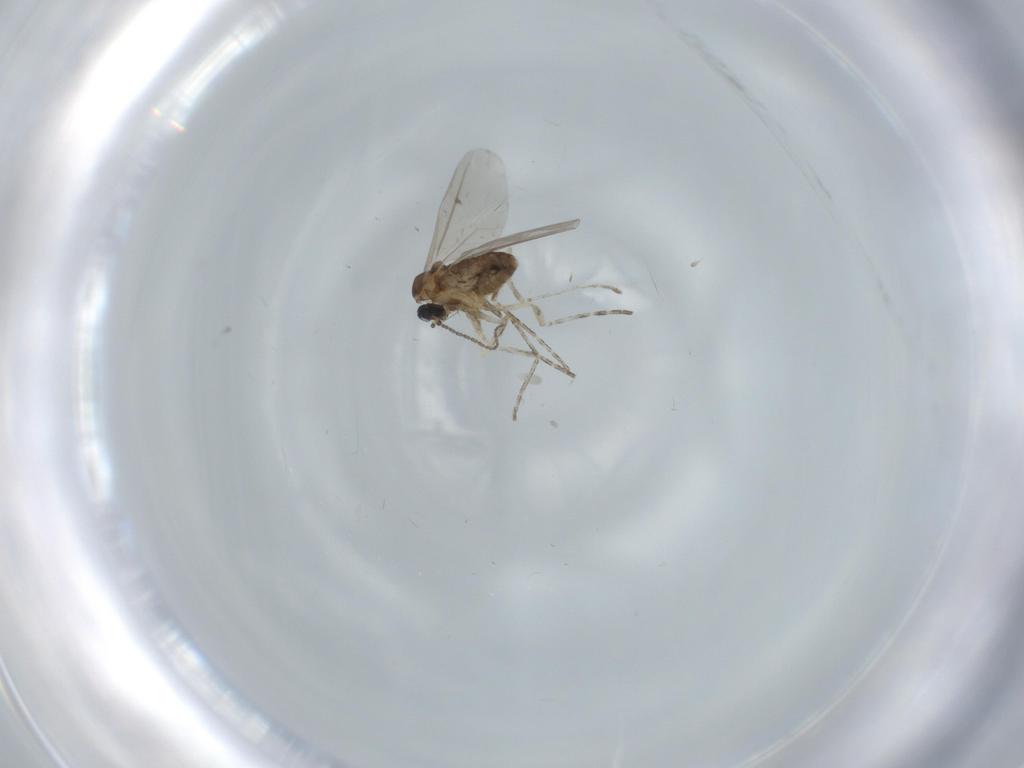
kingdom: Animalia
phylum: Arthropoda
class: Insecta
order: Diptera
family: Cecidomyiidae
